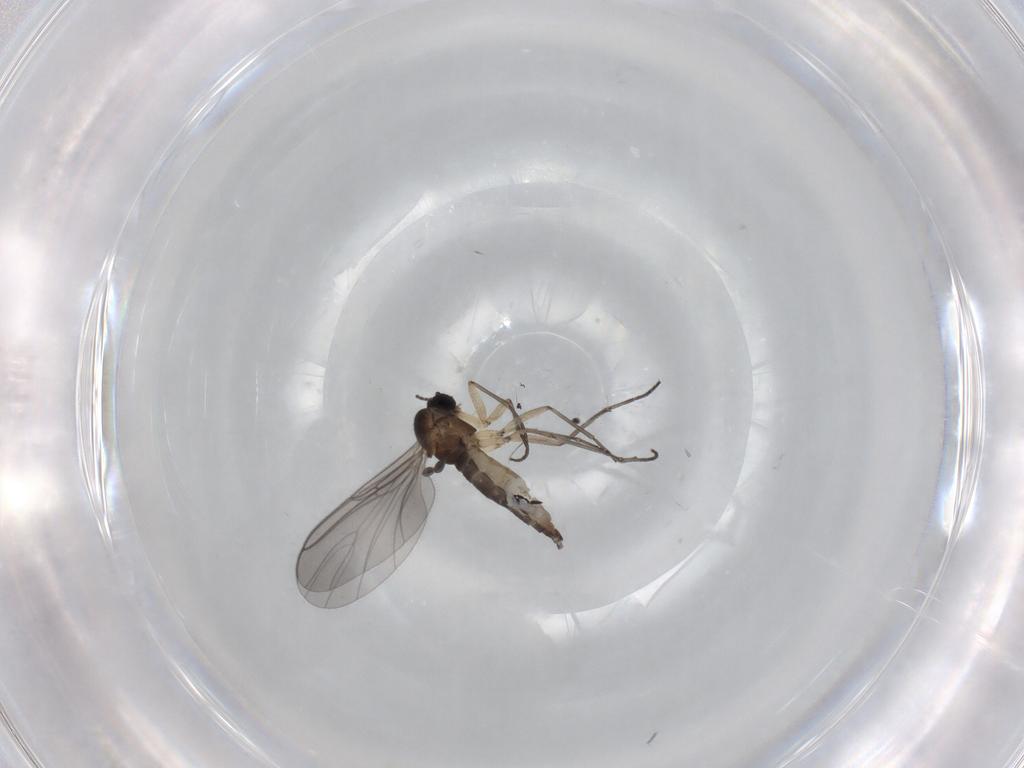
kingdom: Animalia
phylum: Arthropoda
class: Insecta
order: Diptera
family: Sciaridae
